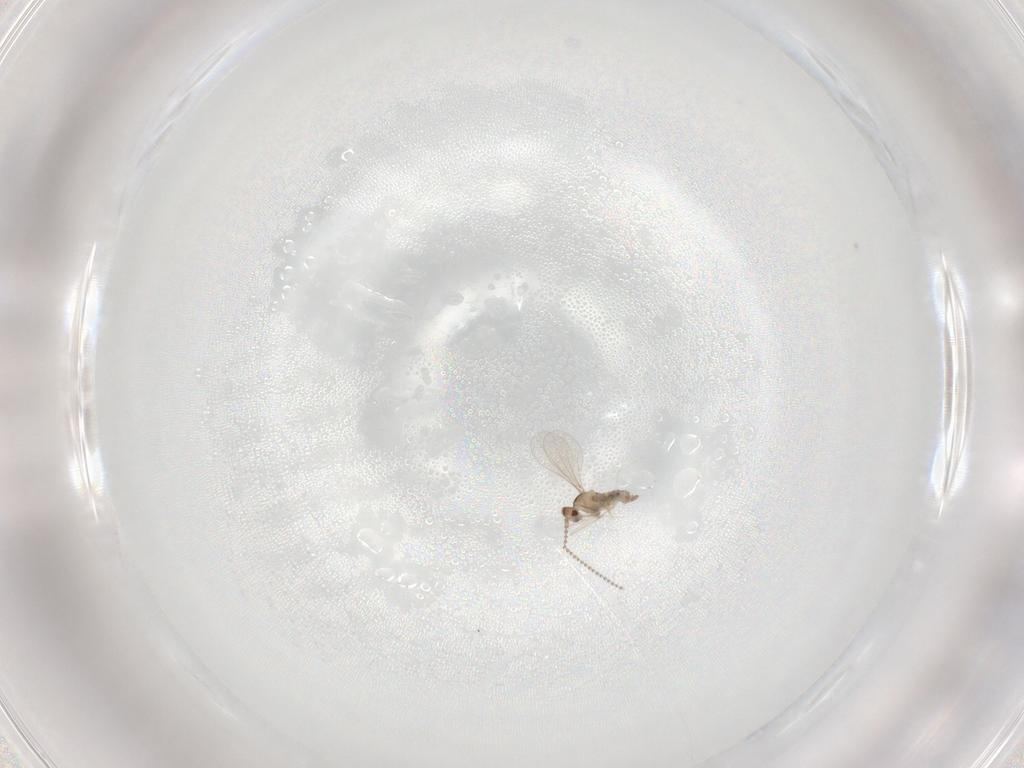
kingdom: Animalia
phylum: Arthropoda
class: Insecta
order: Diptera
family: Cecidomyiidae
